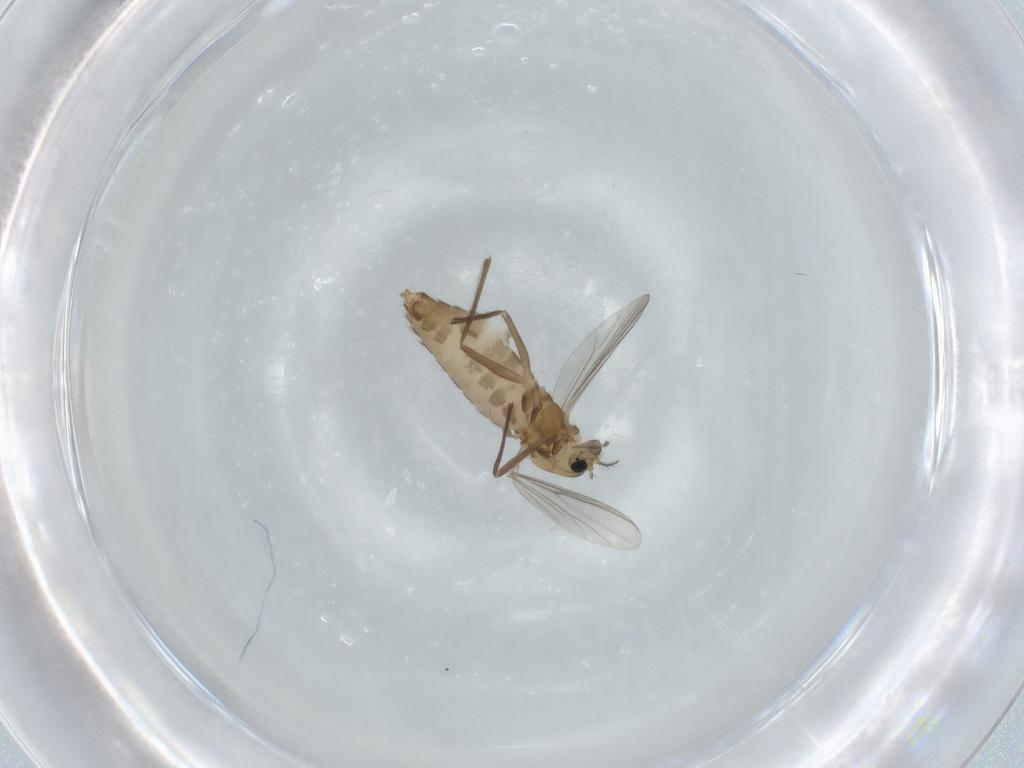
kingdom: Animalia
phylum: Arthropoda
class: Insecta
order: Diptera
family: Chironomidae
